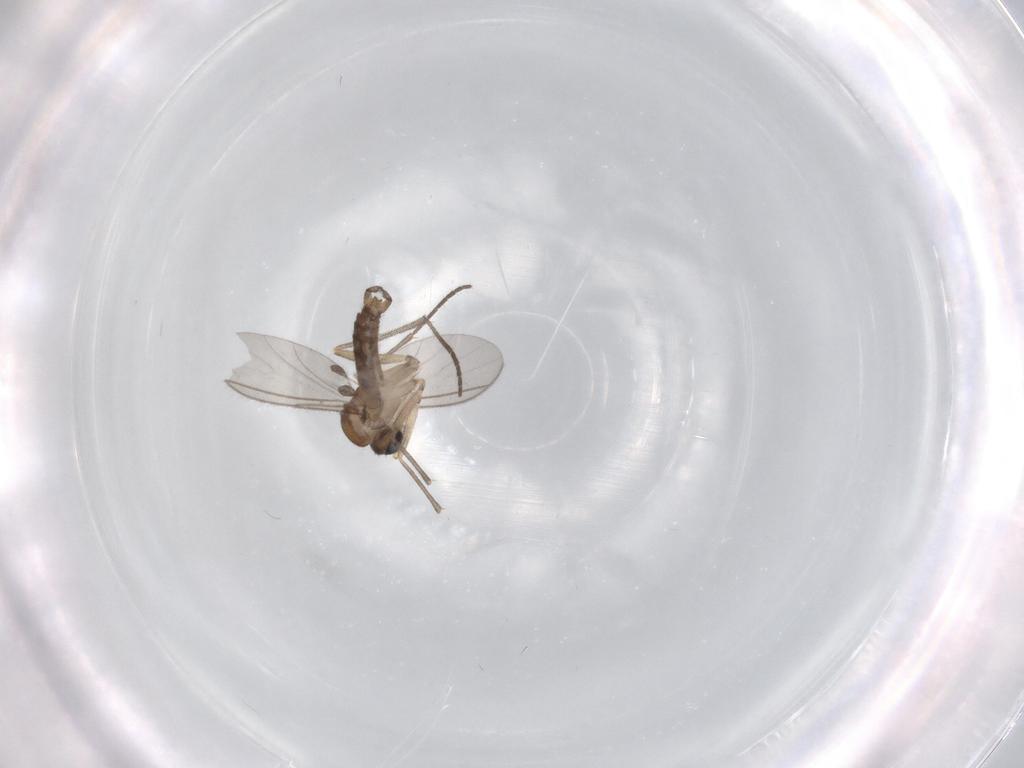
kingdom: Animalia
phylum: Arthropoda
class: Insecta
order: Diptera
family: Sciaridae
